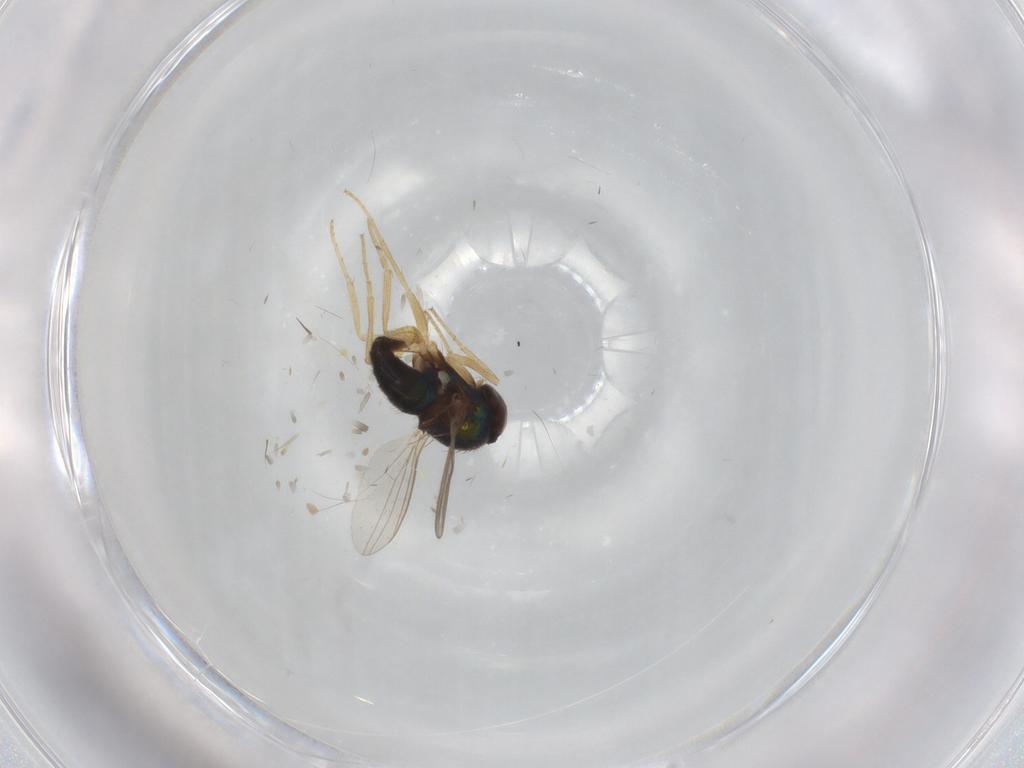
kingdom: Animalia
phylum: Arthropoda
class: Insecta
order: Diptera
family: Dolichopodidae
